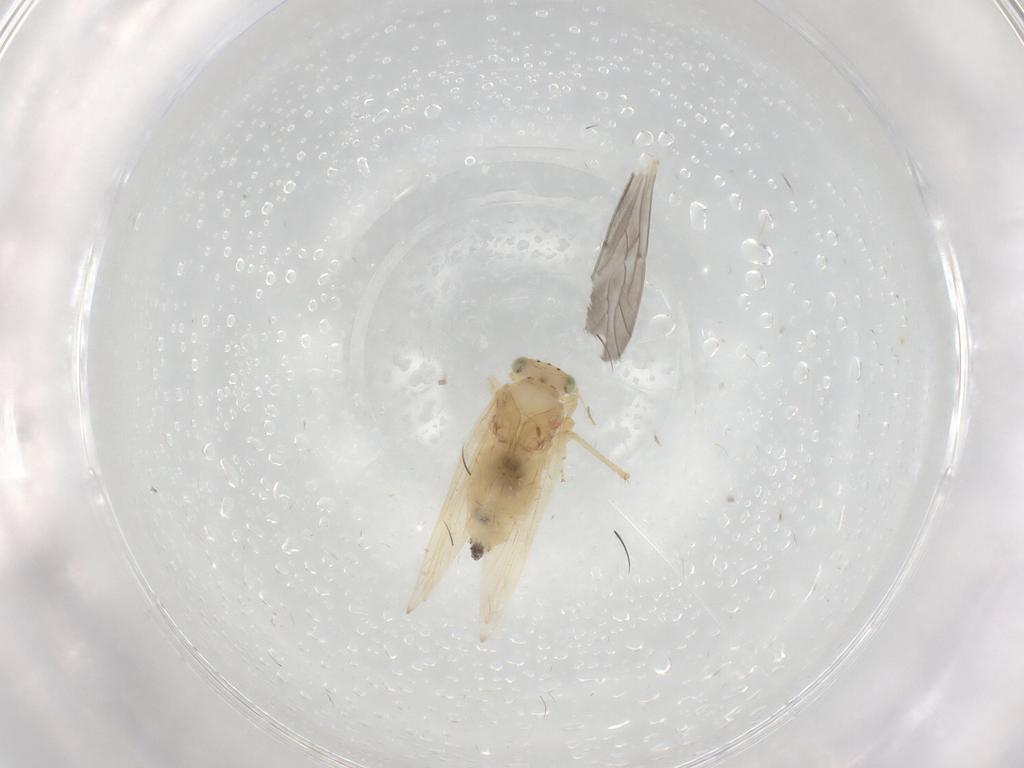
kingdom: Animalia
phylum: Arthropoda
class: Insecta
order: Psocodea
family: Lepidopsocidae
